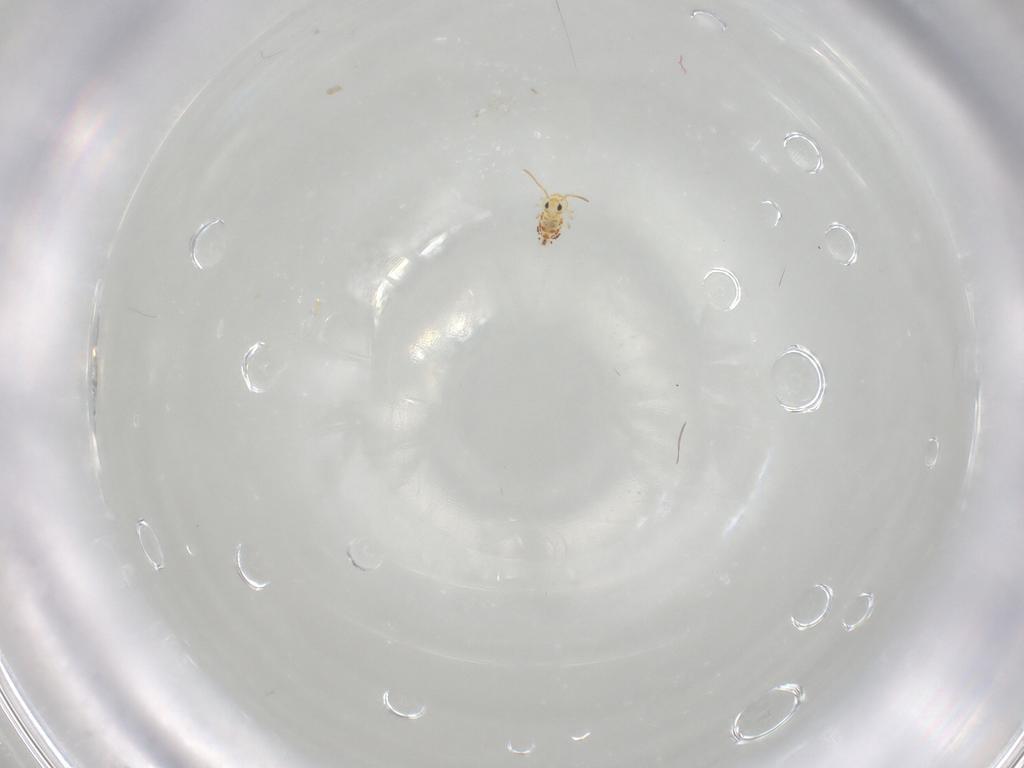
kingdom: Animalia
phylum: Arthropoda
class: Collembola
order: Symphypleona
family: Bourletiellidae
